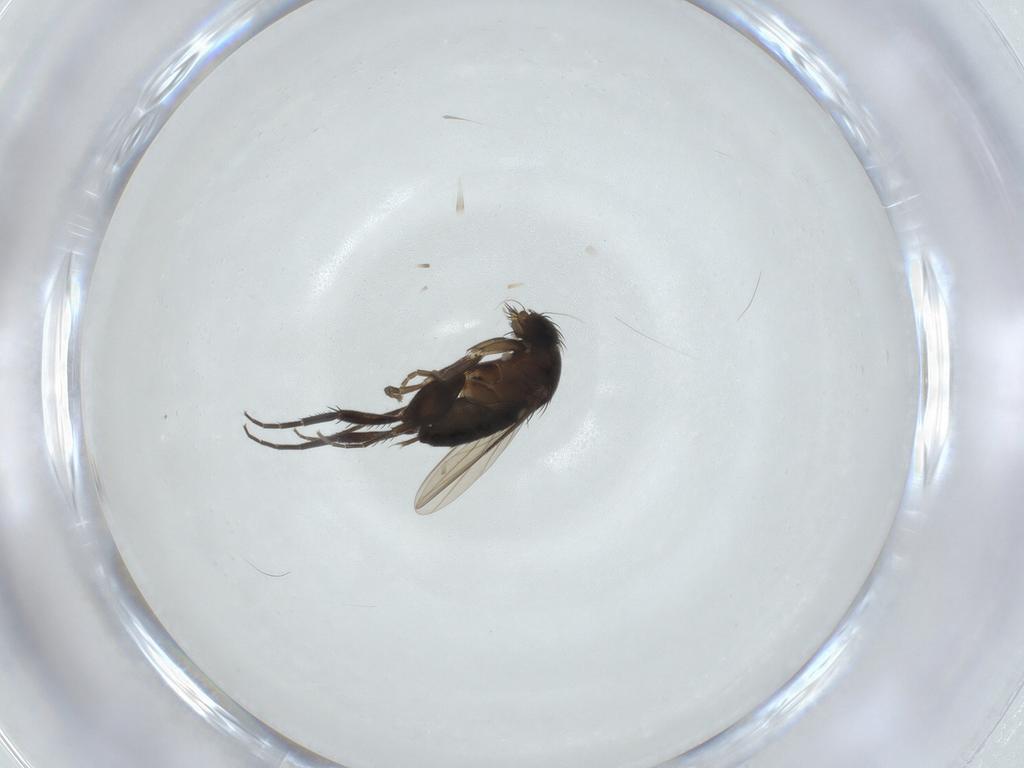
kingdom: Animalia
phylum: Arthropoda
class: Insecta
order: Diptera
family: Phoridae
